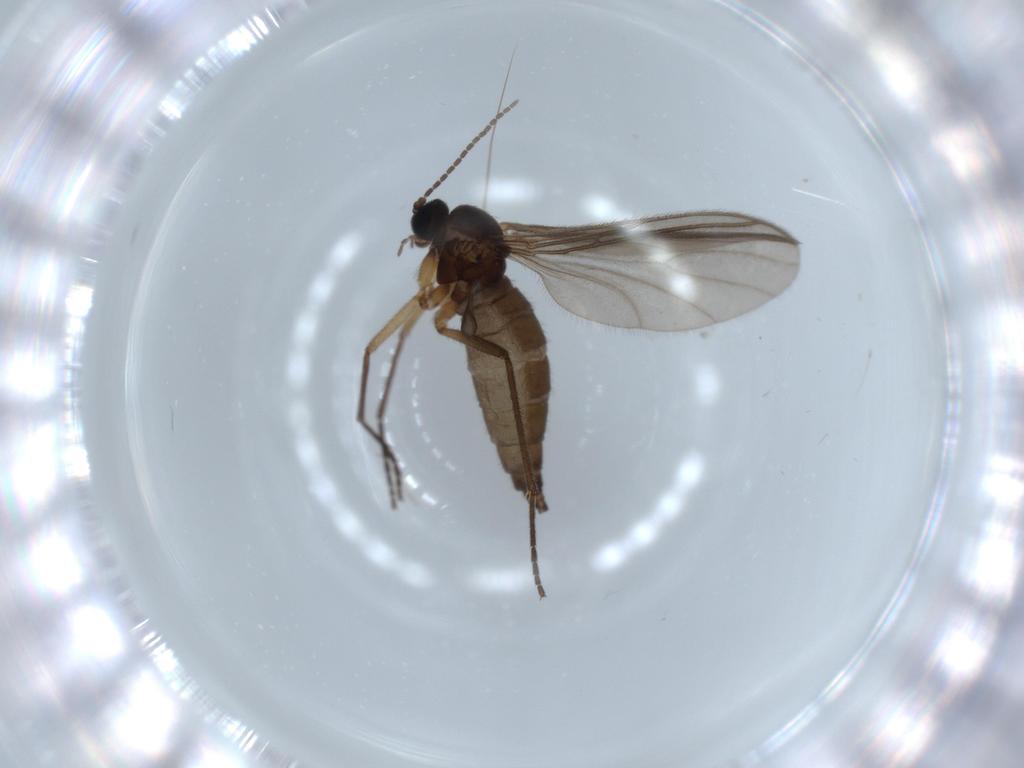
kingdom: Animalia
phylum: Arthropoda
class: Insecta
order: Diptera
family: Sciaridae
